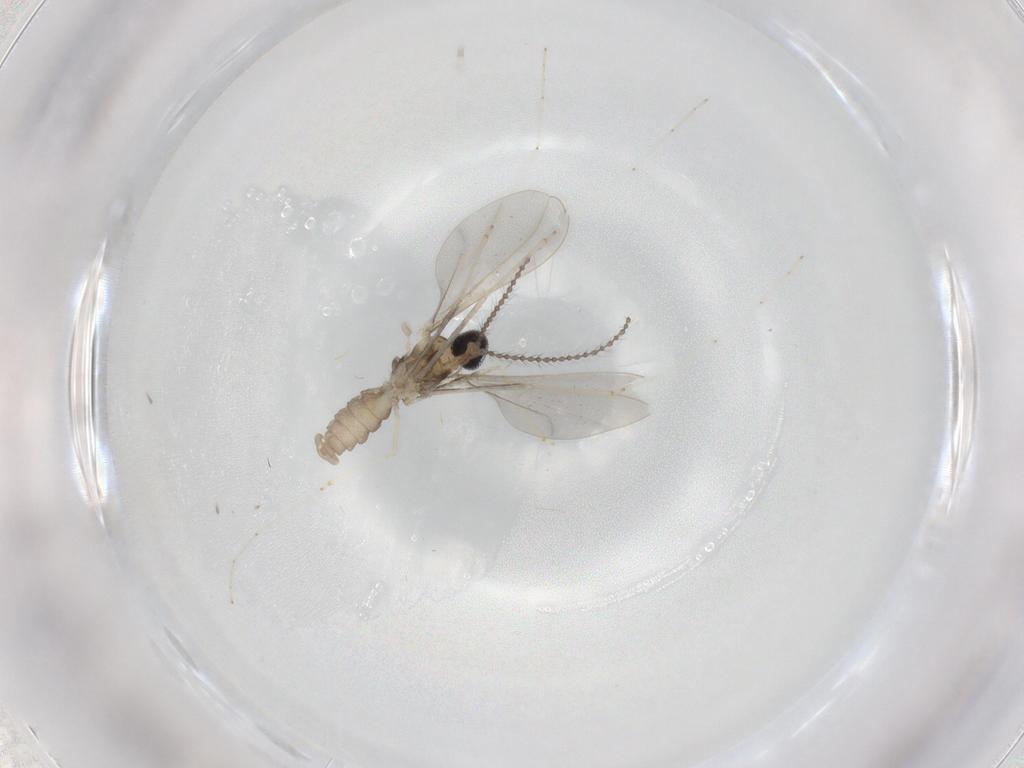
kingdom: Animalia
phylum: Arthropoda
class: Insecta
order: Diptera
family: Cecidomyiidae
